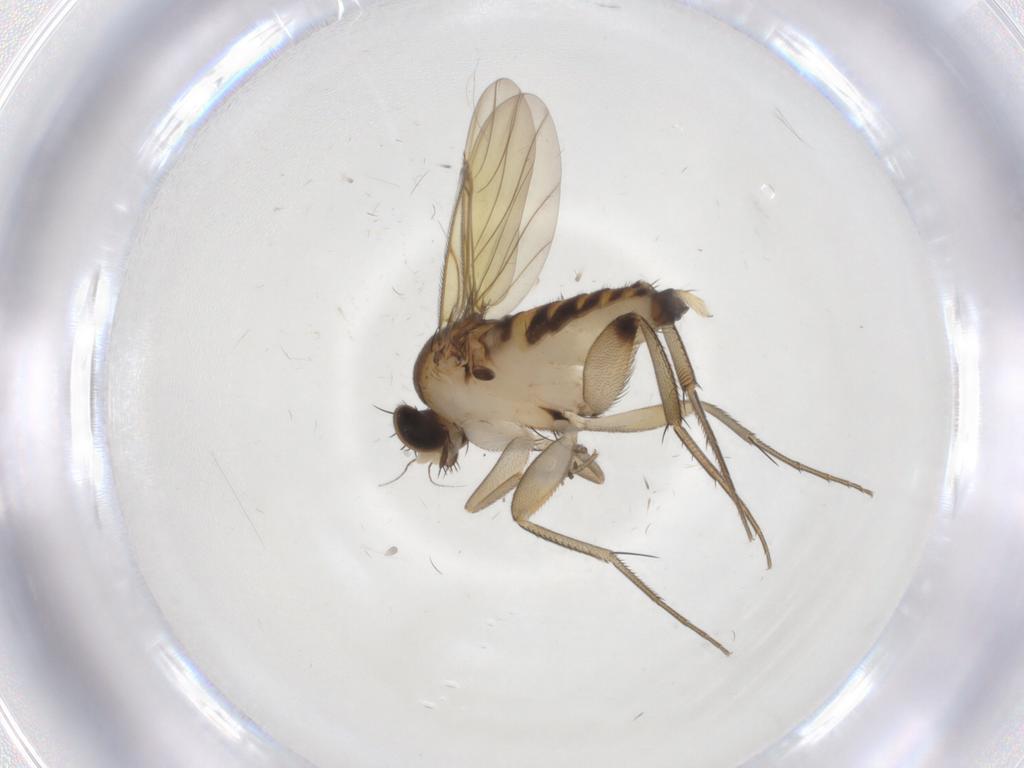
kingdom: Animalia
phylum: Arthropoda
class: Insecta
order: Diptera
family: Phoridae
